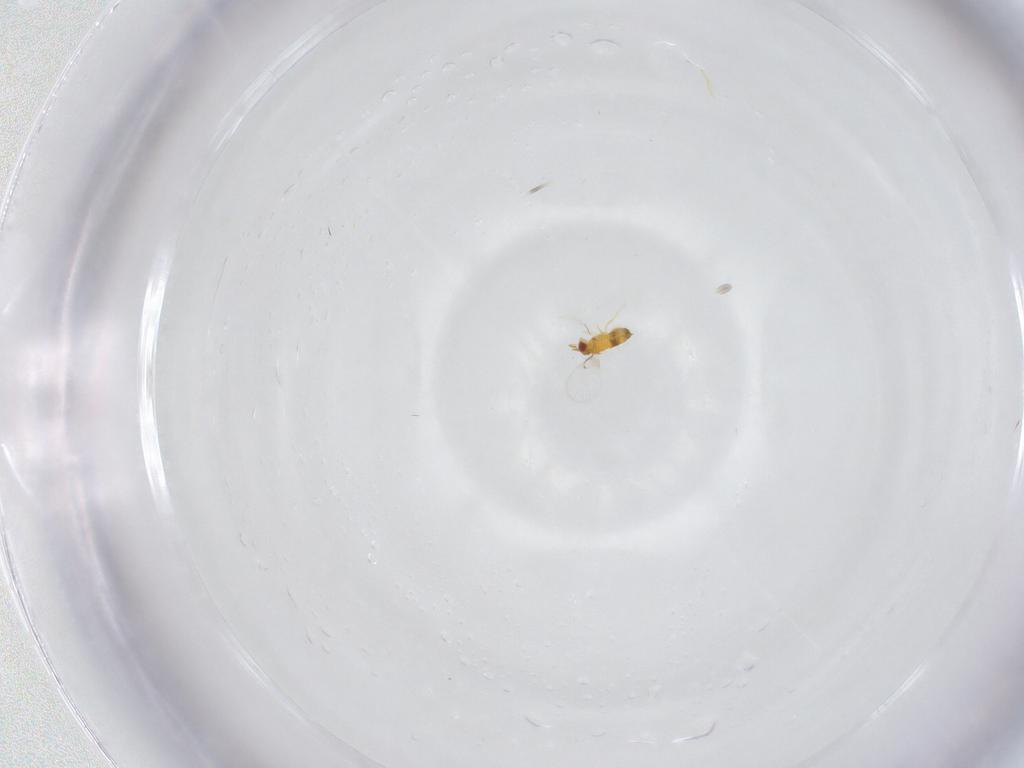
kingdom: Animalia
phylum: Arthropoda
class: Insecta
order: Hymenoptera
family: Trichogrammatidae
